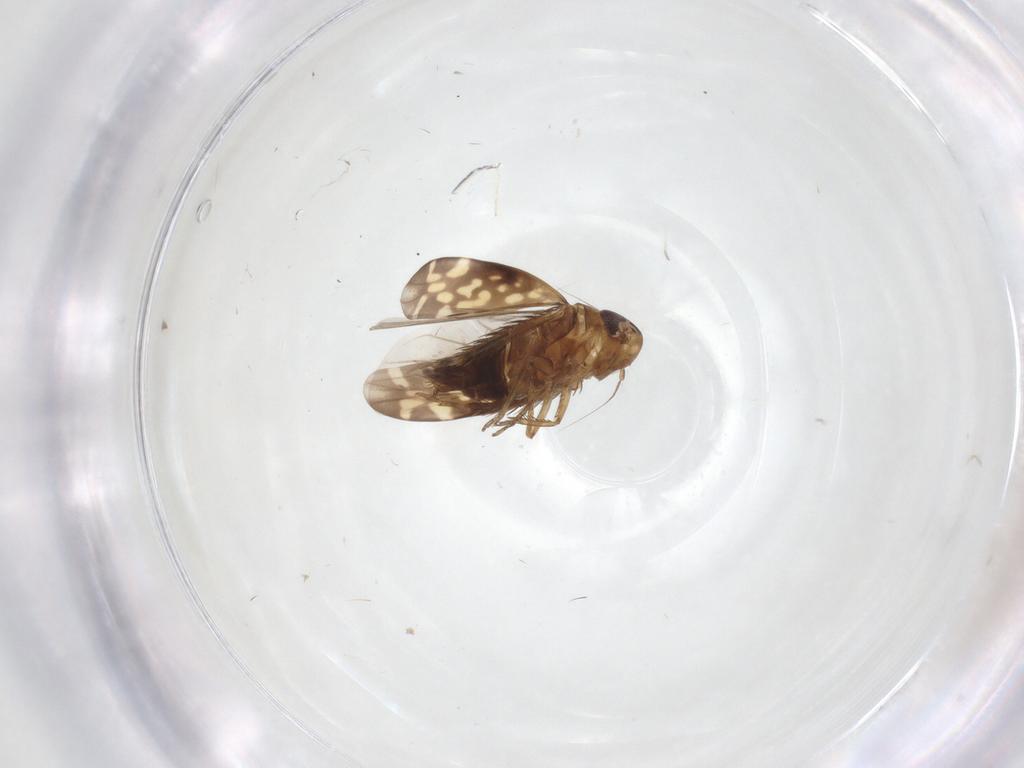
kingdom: Animalia
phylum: Arthropoda
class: Insecta
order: Hemiptera
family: Cicadellidae
